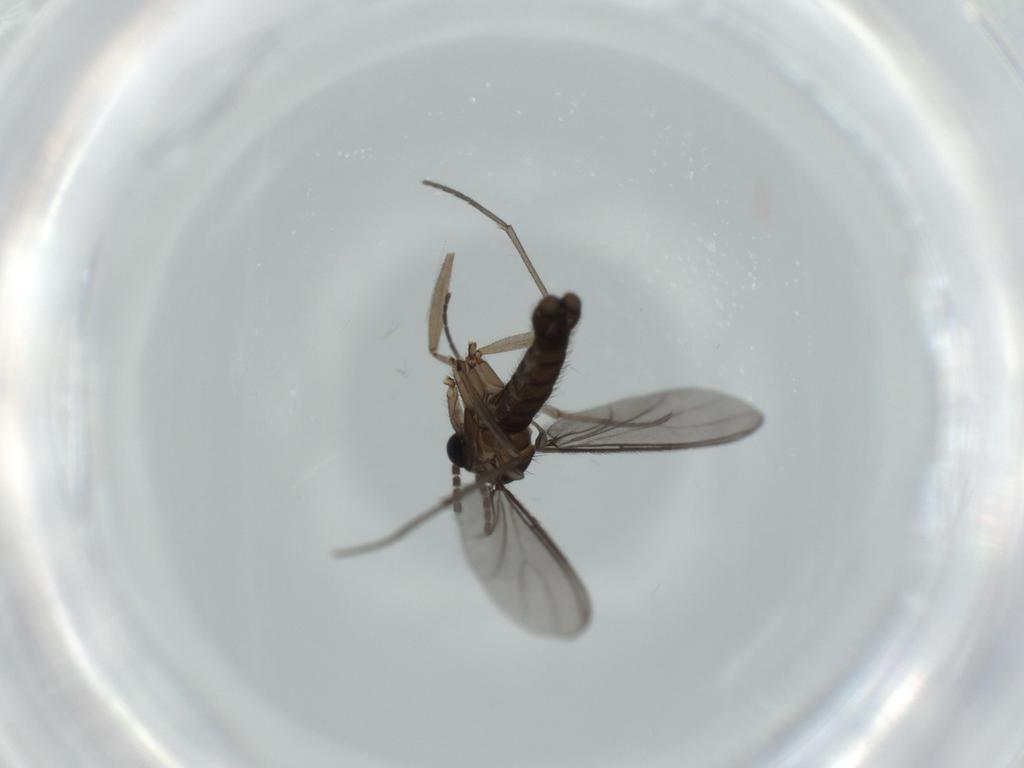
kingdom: Animalia
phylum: Arthropoda
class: Insecta
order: Diptera
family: Sciaridae
